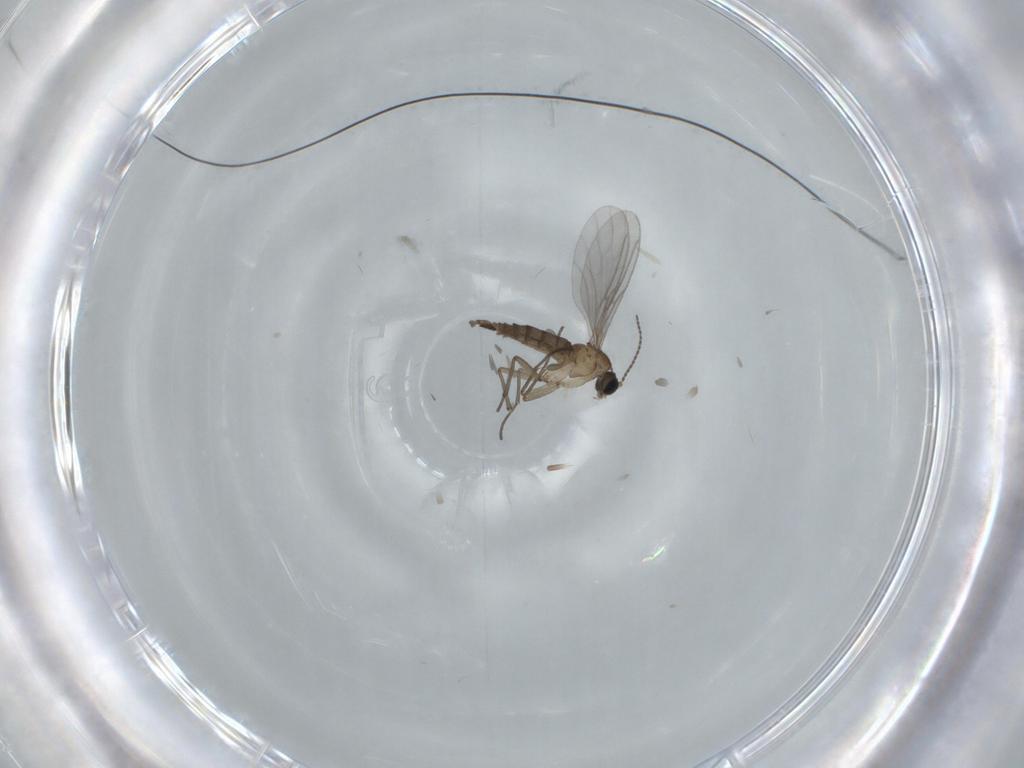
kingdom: Animalia
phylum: Arthropoda
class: Insecta
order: Diptera
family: Sciaridae
